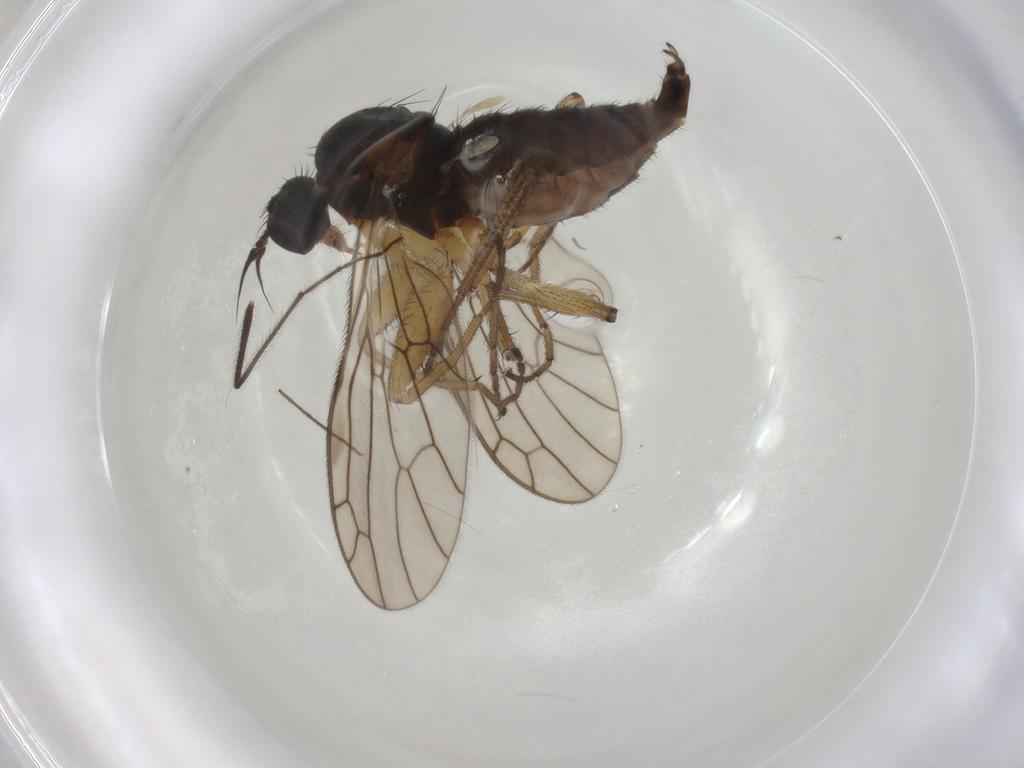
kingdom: Animalia
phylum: Arthropoda
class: Insecta
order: Diptera
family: Chironomidae
